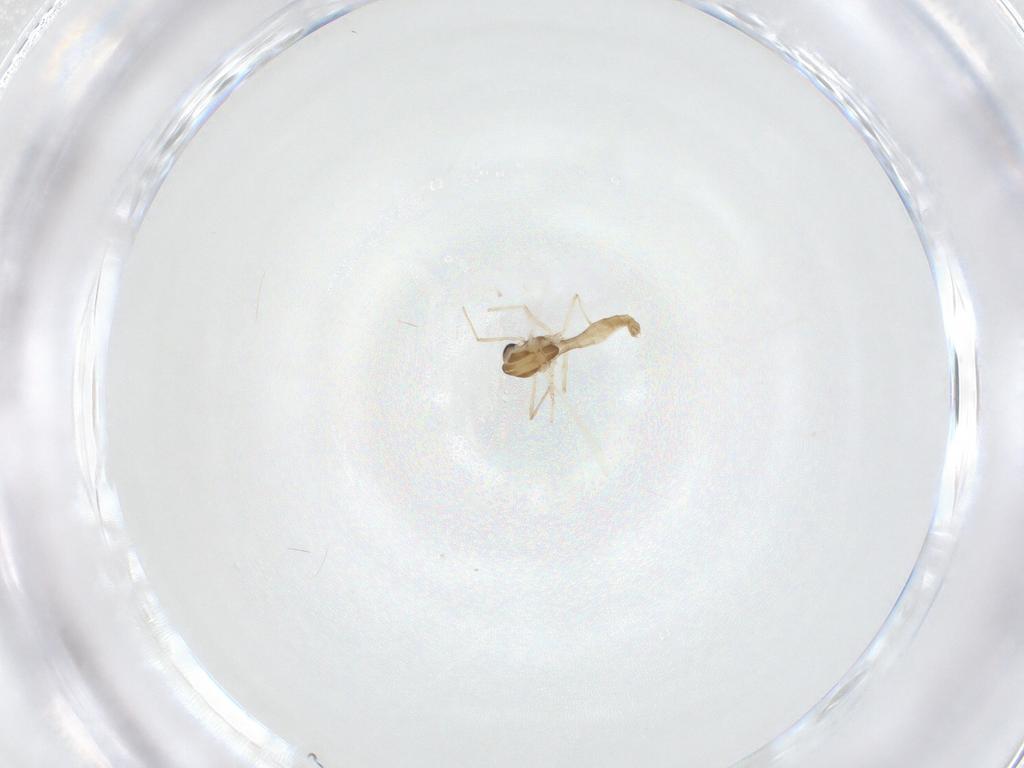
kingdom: Animalia
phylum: Arthropoda
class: Insecta
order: Diptera
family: Chironomidae
